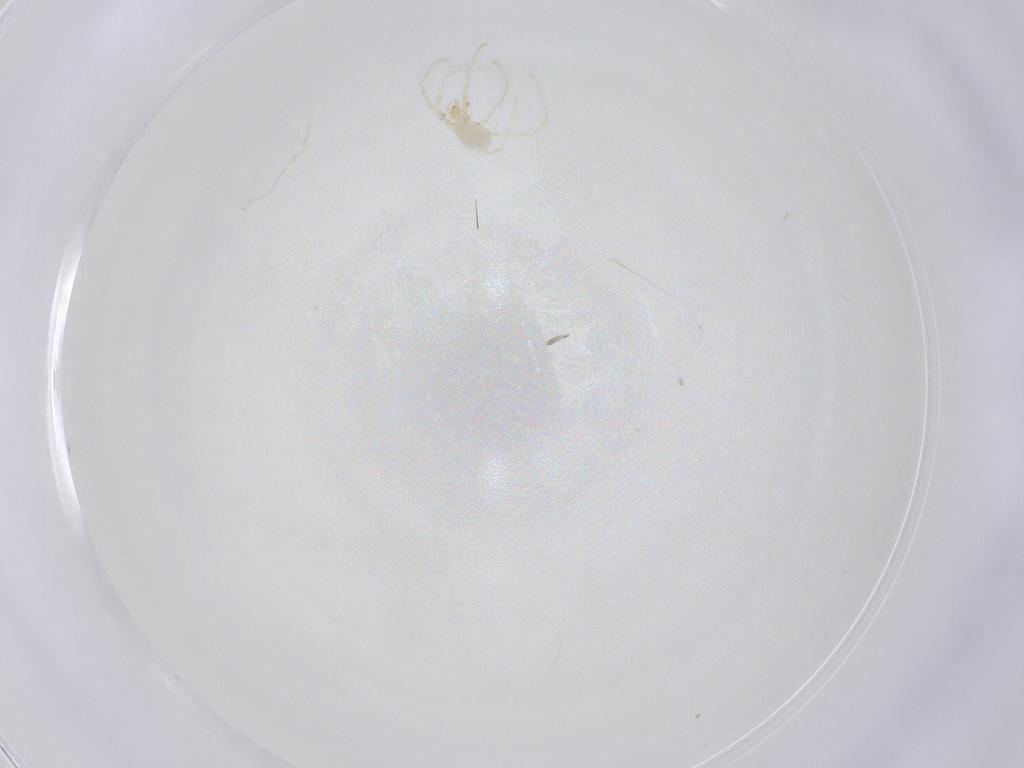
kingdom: Animalia
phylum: Arthropoda
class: Arachnida
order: Trombidiformes
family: Erythraeidae
